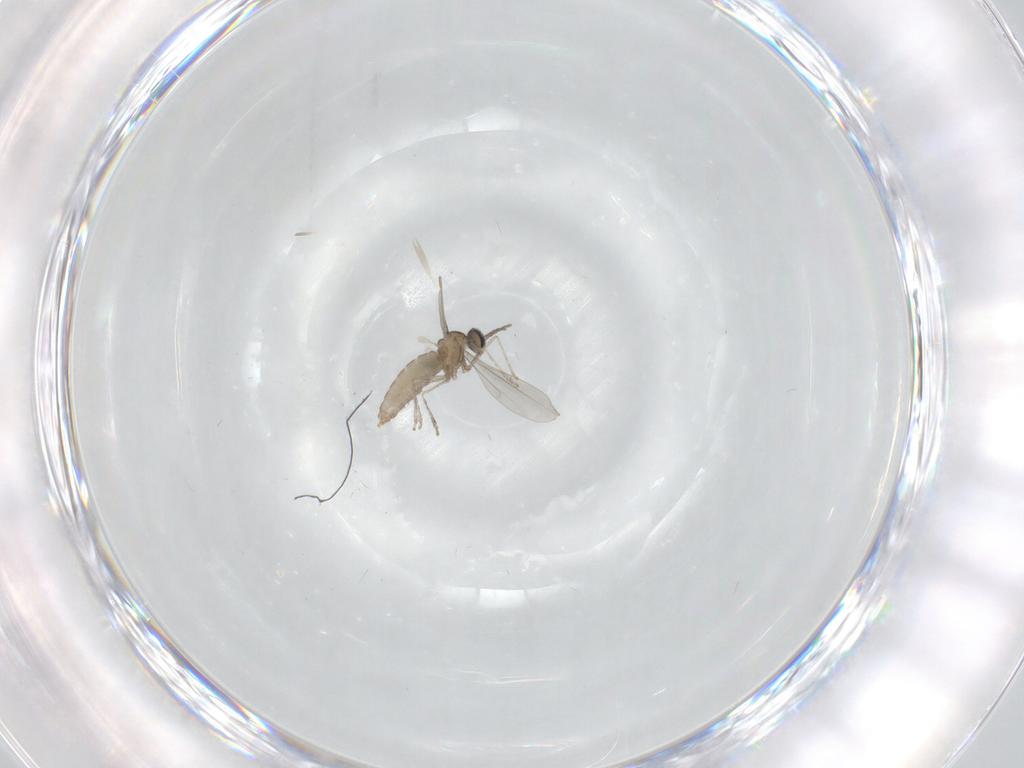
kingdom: Animalia
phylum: Arthropoda
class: Insecta
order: Diptera
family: Cecidomyiidae
